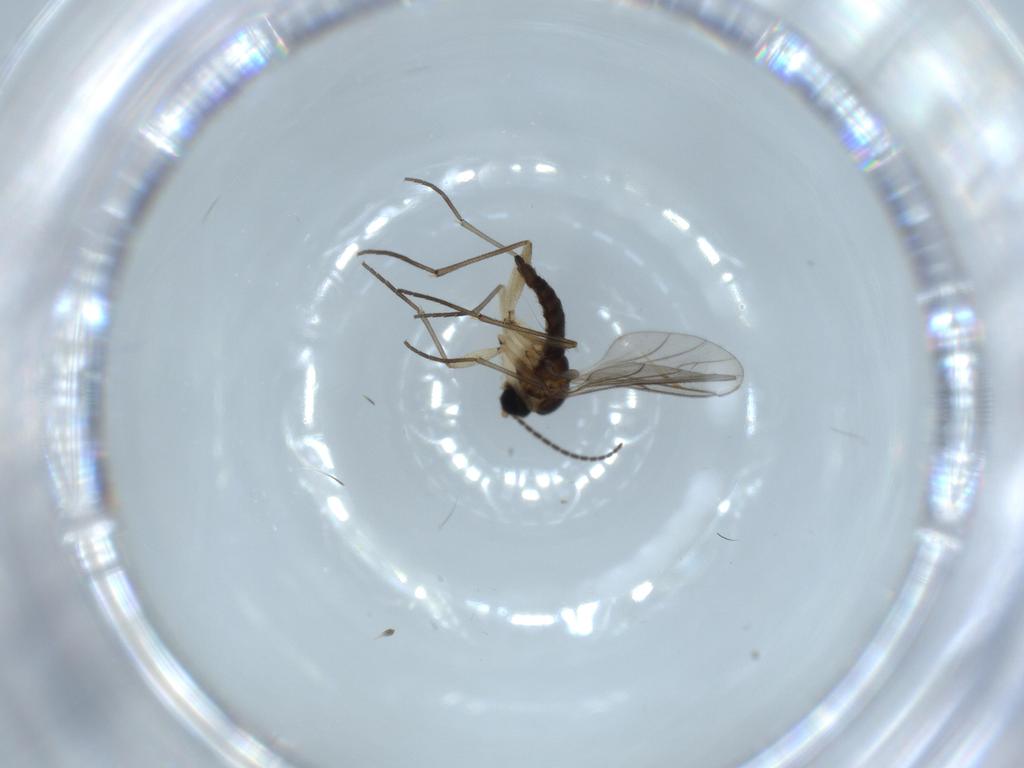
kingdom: Animalia
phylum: Arthropoda
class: Insecta
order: Diptera
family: Sciaridae
